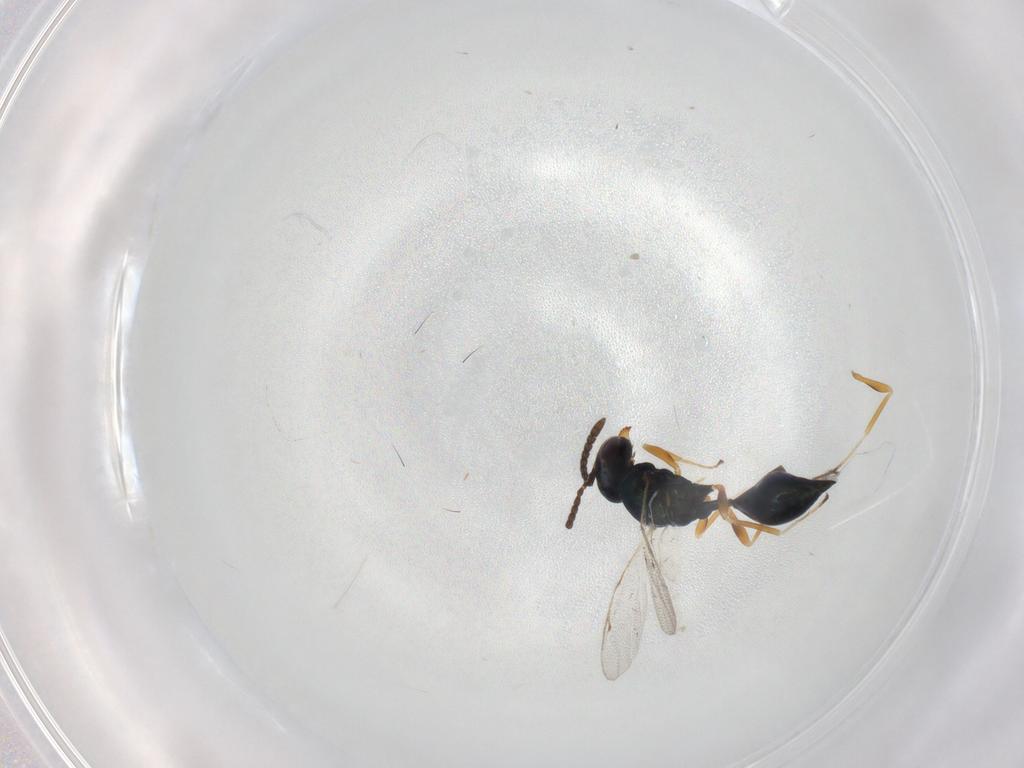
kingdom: Animalia
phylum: Arthropoda
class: Insecta
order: Hymenoptera
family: Pteromalidae
